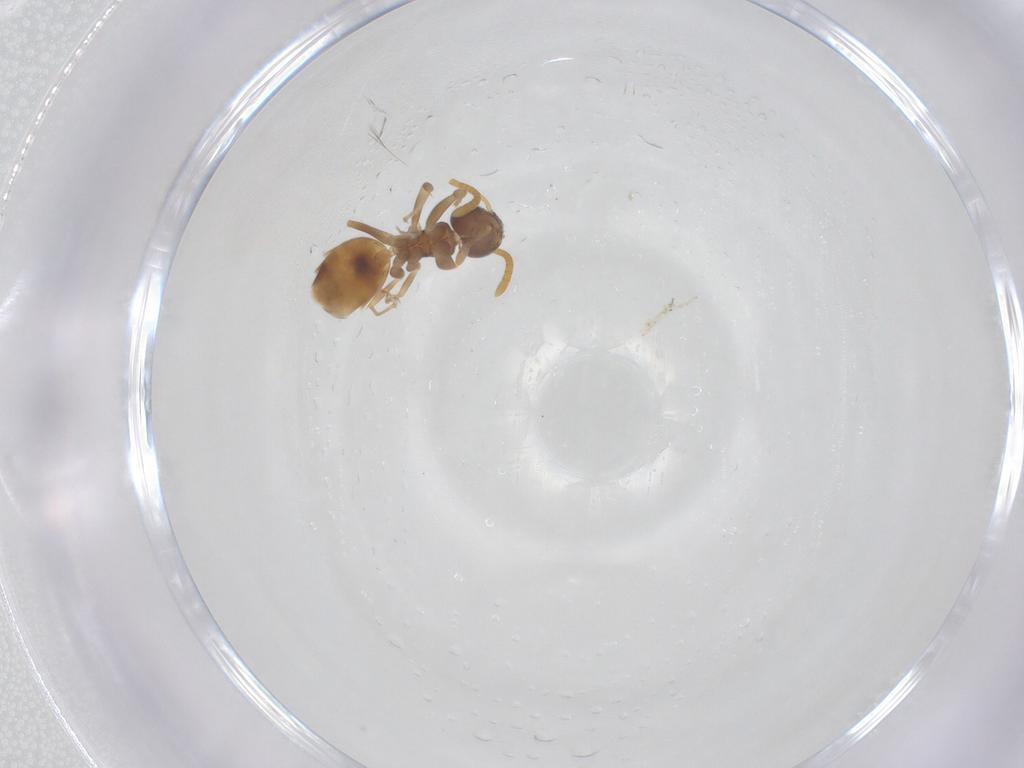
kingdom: Animalia
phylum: Arthropoda
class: Insecta
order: Hymenoptera
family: Formicidae
